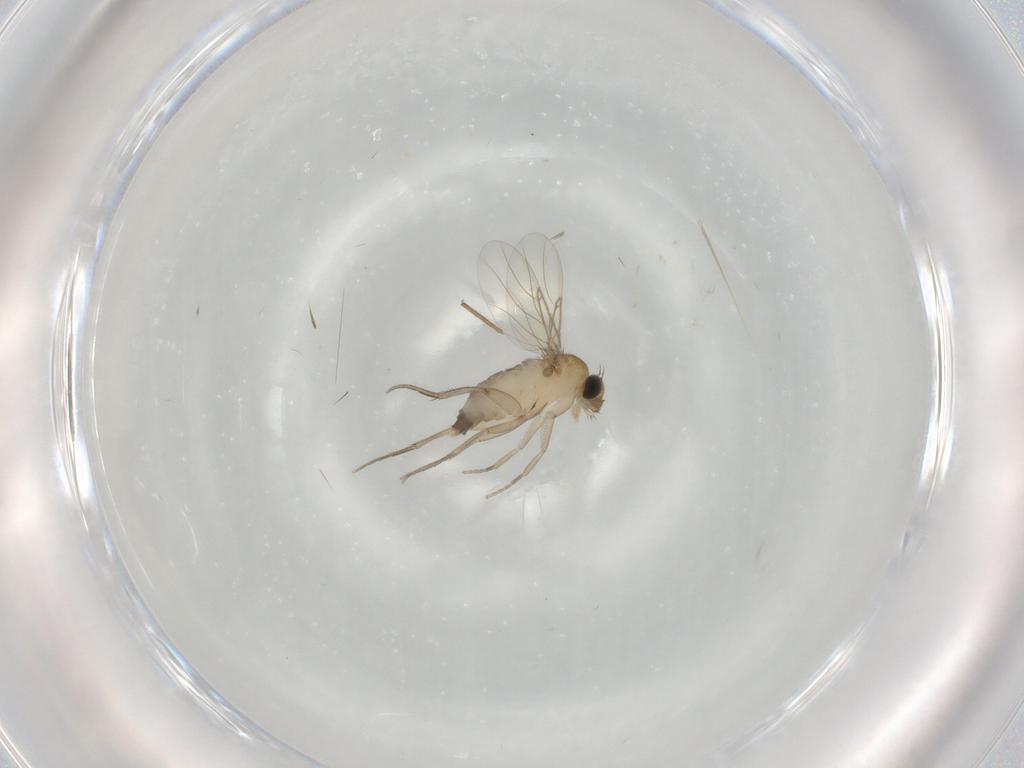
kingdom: Animalia
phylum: Arthropoda
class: Insecta
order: Diptera
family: Phoridae
